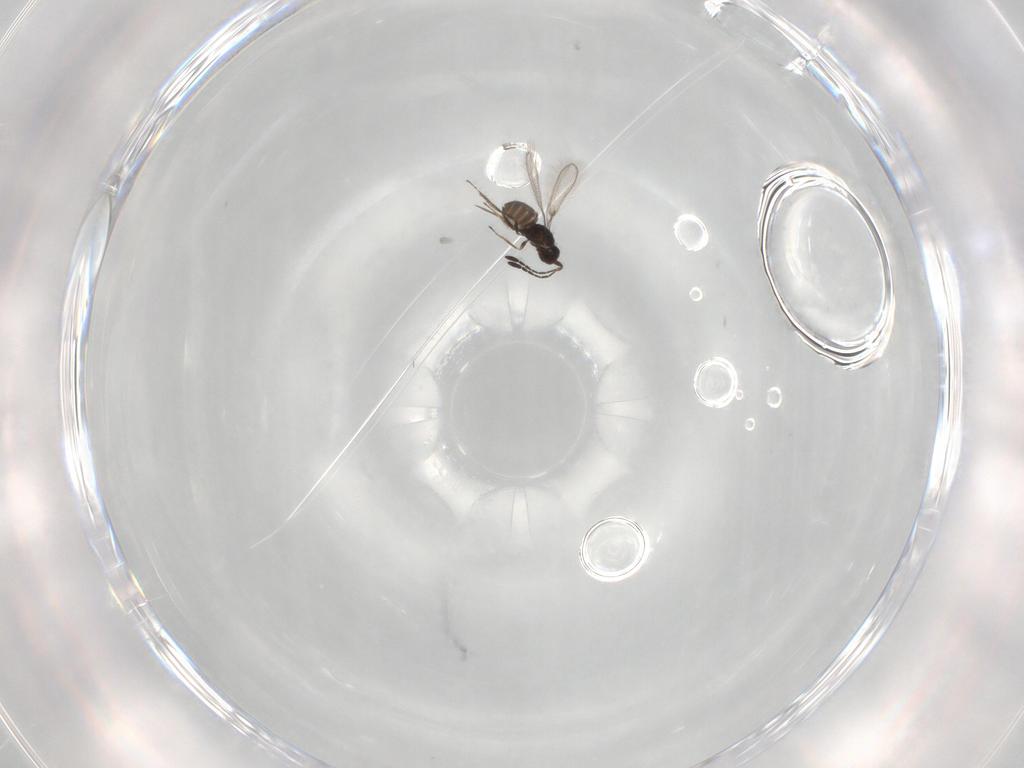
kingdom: Animalia
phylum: Arthropoda
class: Insecta
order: Hymenoptera
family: Mymaridae
